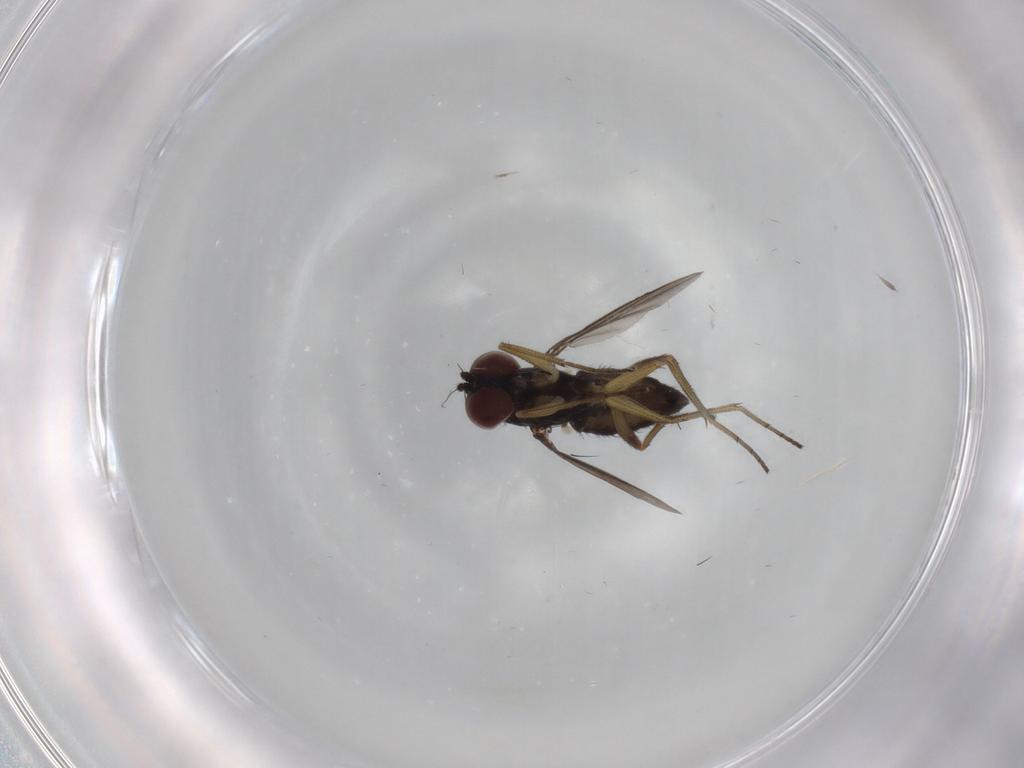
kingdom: Animalia
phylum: Arthropoda
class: Insecta
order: Diptera
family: Dolichopodidae
